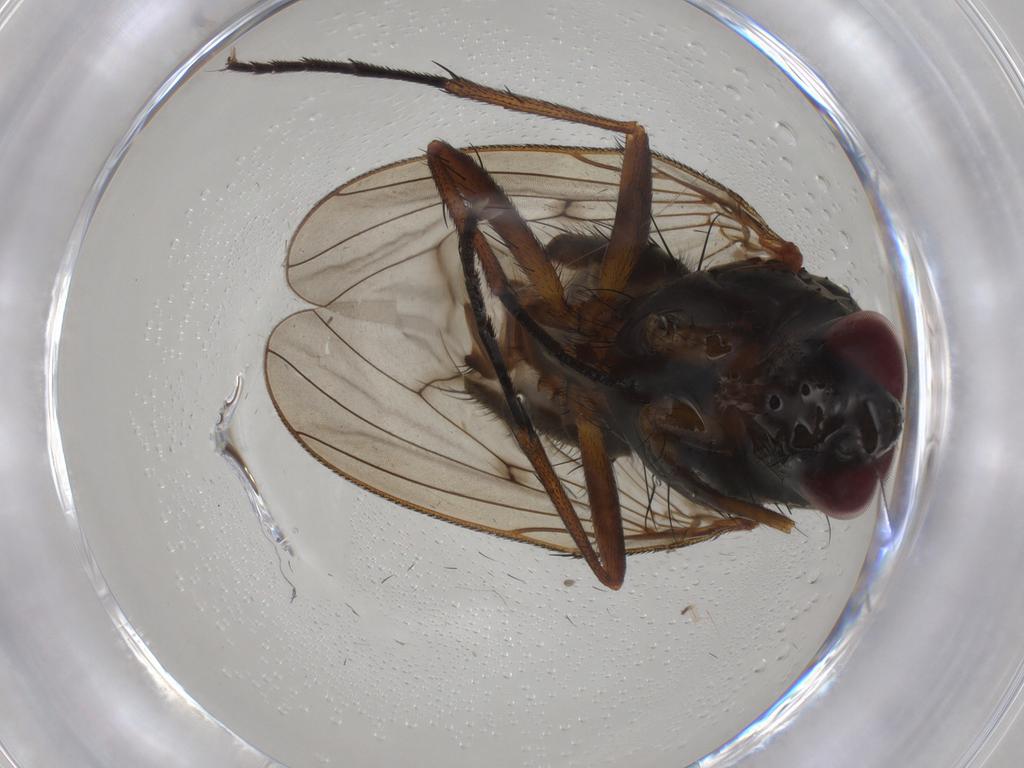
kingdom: Animalia
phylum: Arthropoda
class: Insecta
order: Diptera
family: Anthomyiidae
